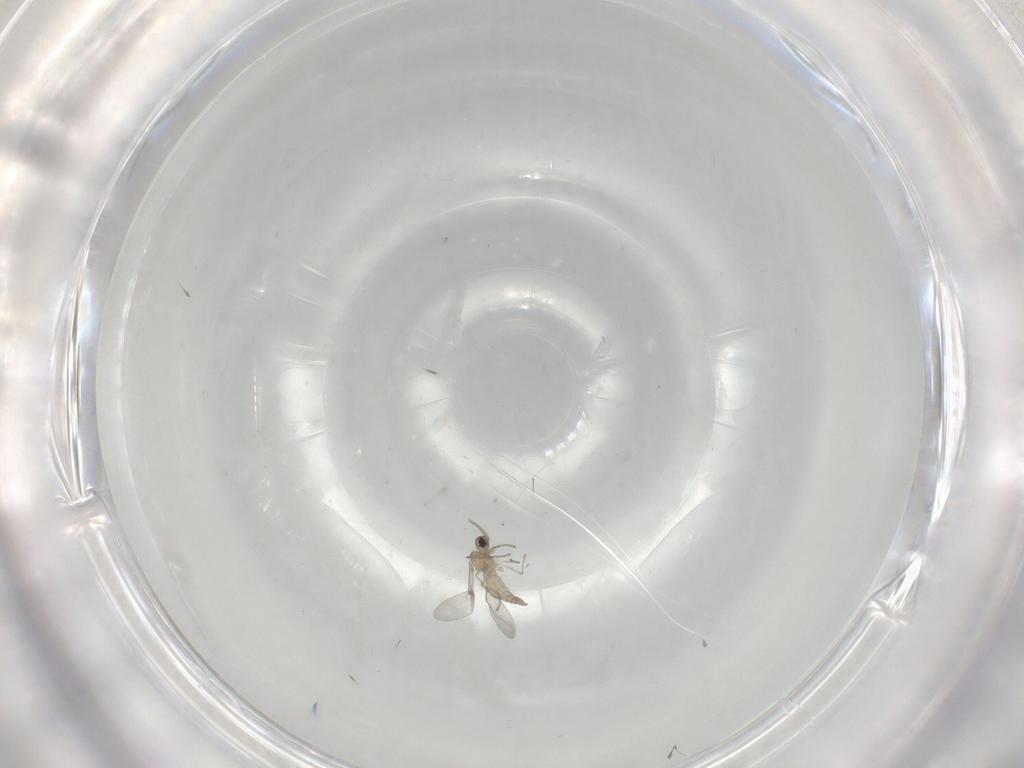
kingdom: Animalia
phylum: Arthropoda
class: Insecta
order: Diptera
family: Cecidomyiidae
